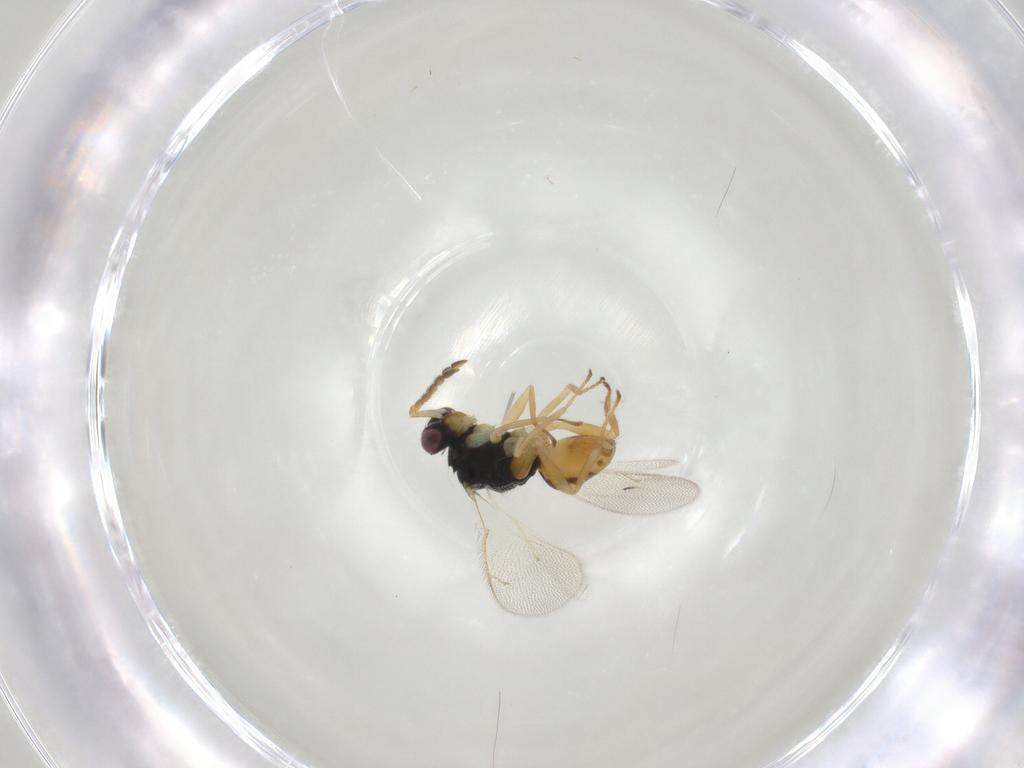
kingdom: Animalia
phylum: Arthropoda
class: Insecta
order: Hymenoptera
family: Eulophidae
